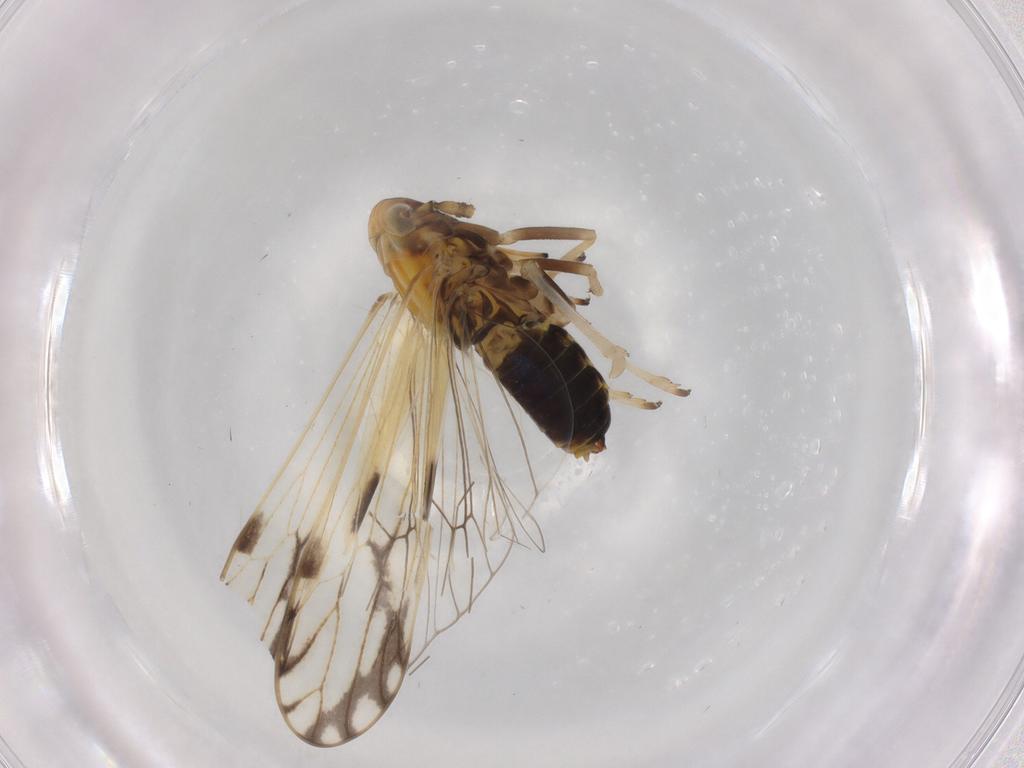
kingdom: Animalia
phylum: Arthropoda
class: Insecta
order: Hemiptera
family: Delphacidae
